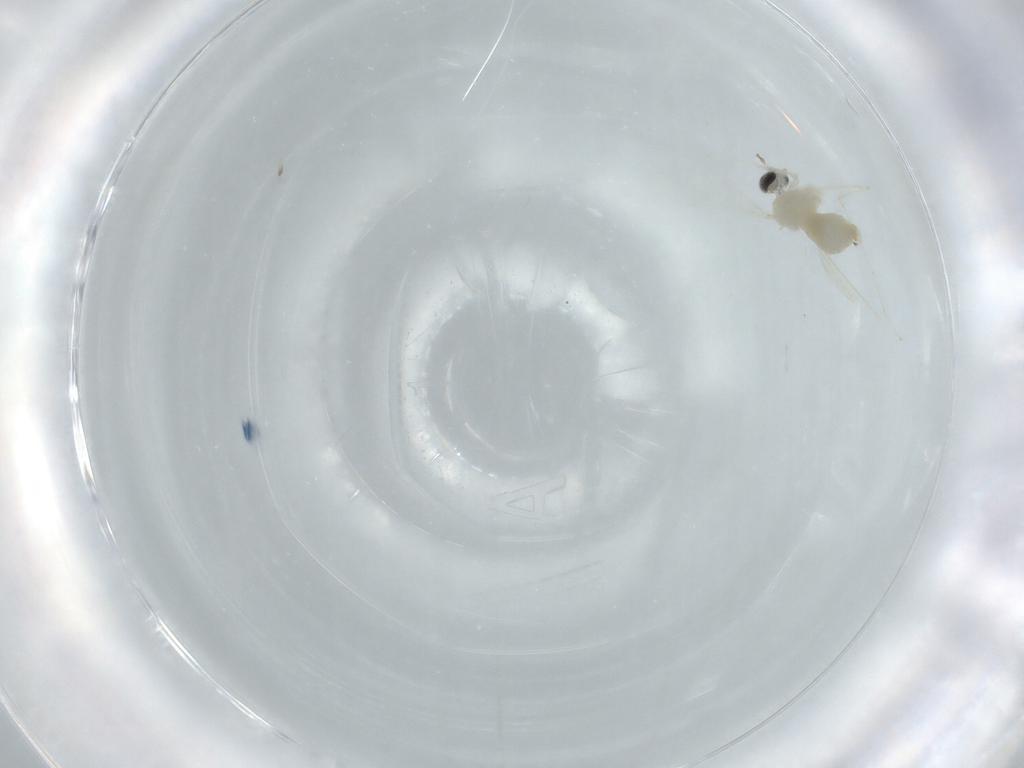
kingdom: Animalia
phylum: Arthropoda
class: Insecta
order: Diptera
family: Cecidomyiidae
